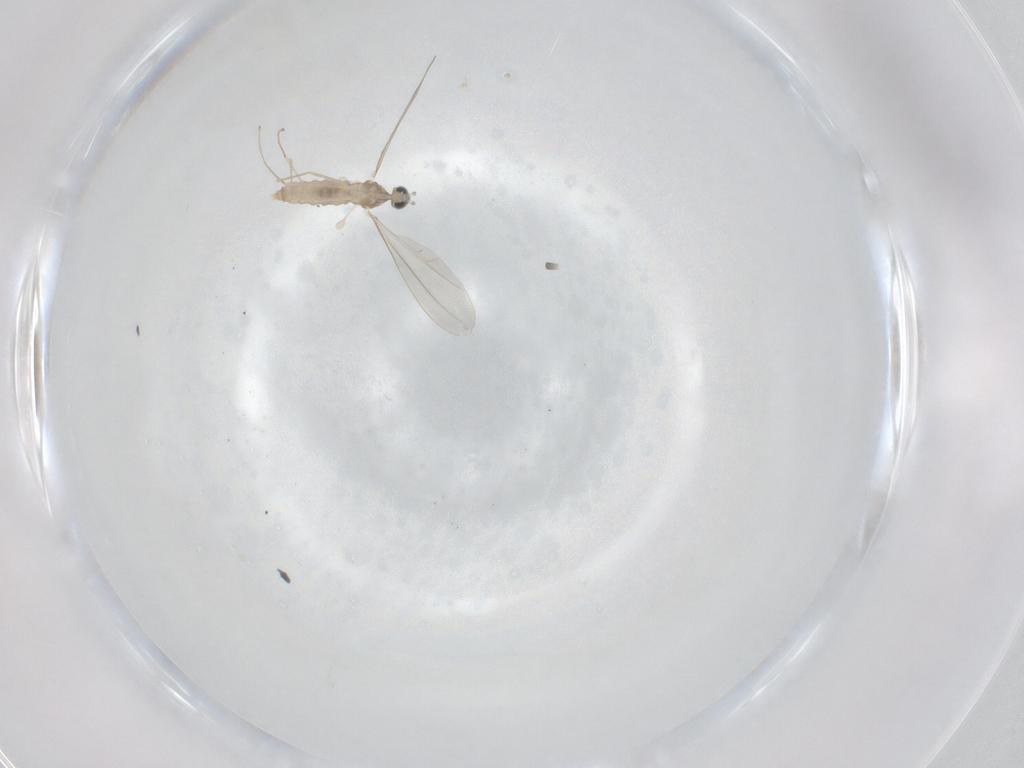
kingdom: Animalia
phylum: Arthropoda
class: Insecta
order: Diptera
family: Cecidomyiidae
